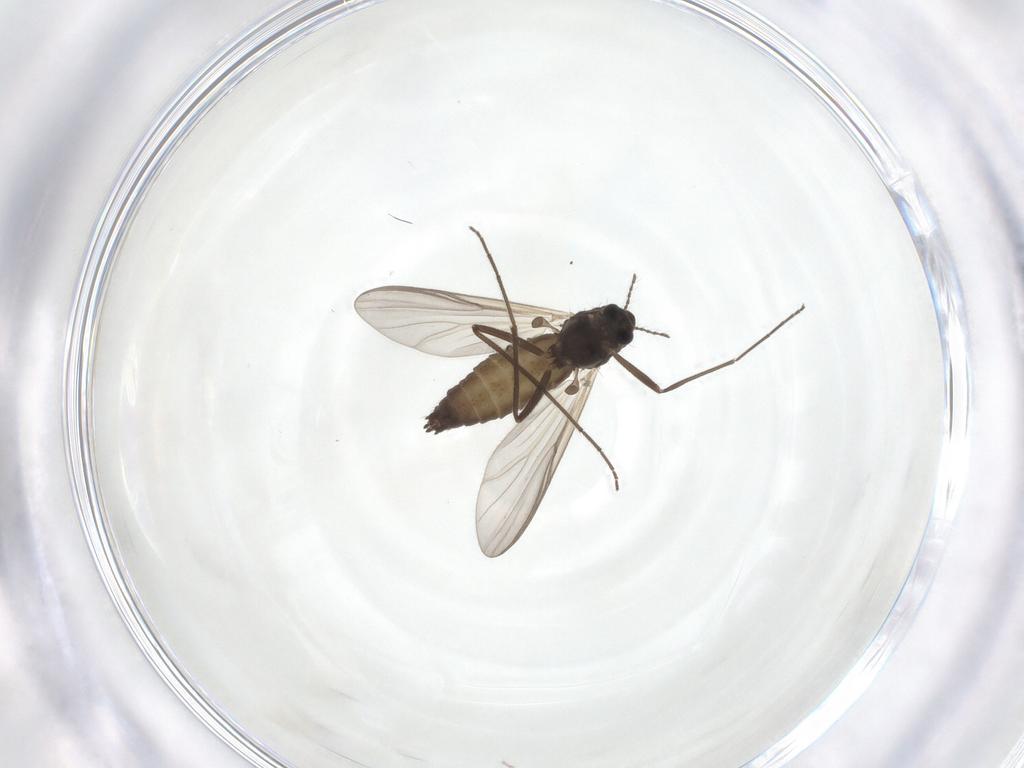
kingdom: Animalia
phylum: Arthropoda
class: Insecta
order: Diptera
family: Chironomidae
